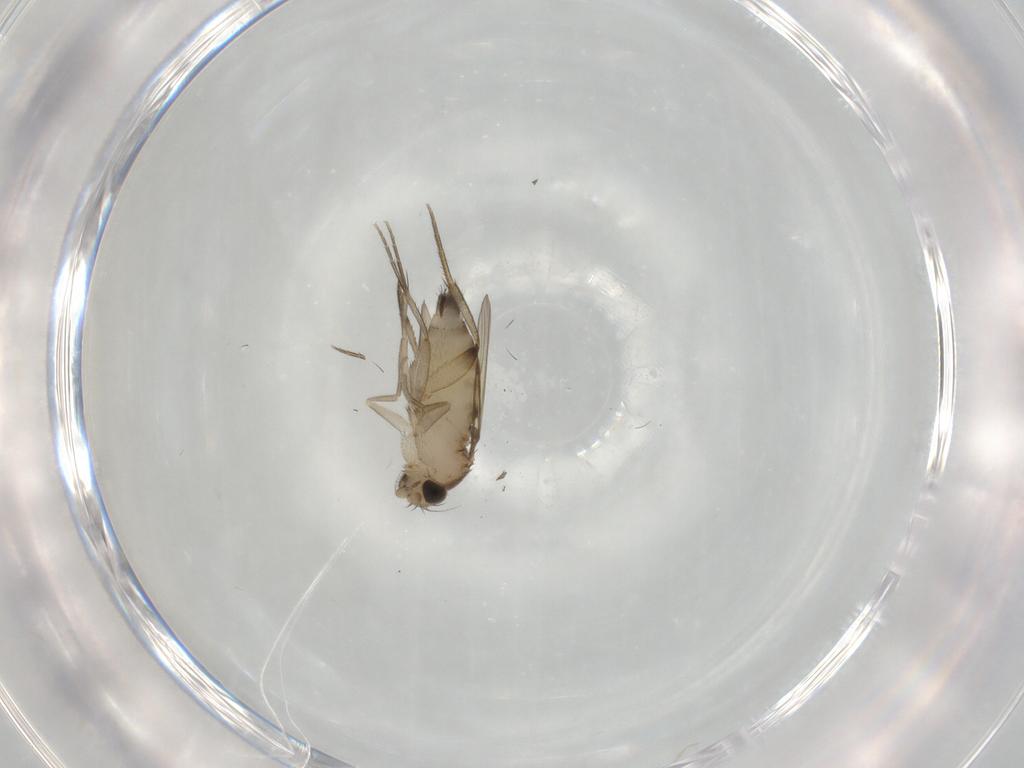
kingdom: Animalia
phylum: Arthropoda
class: Insecta
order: Diptera
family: Phoridae
